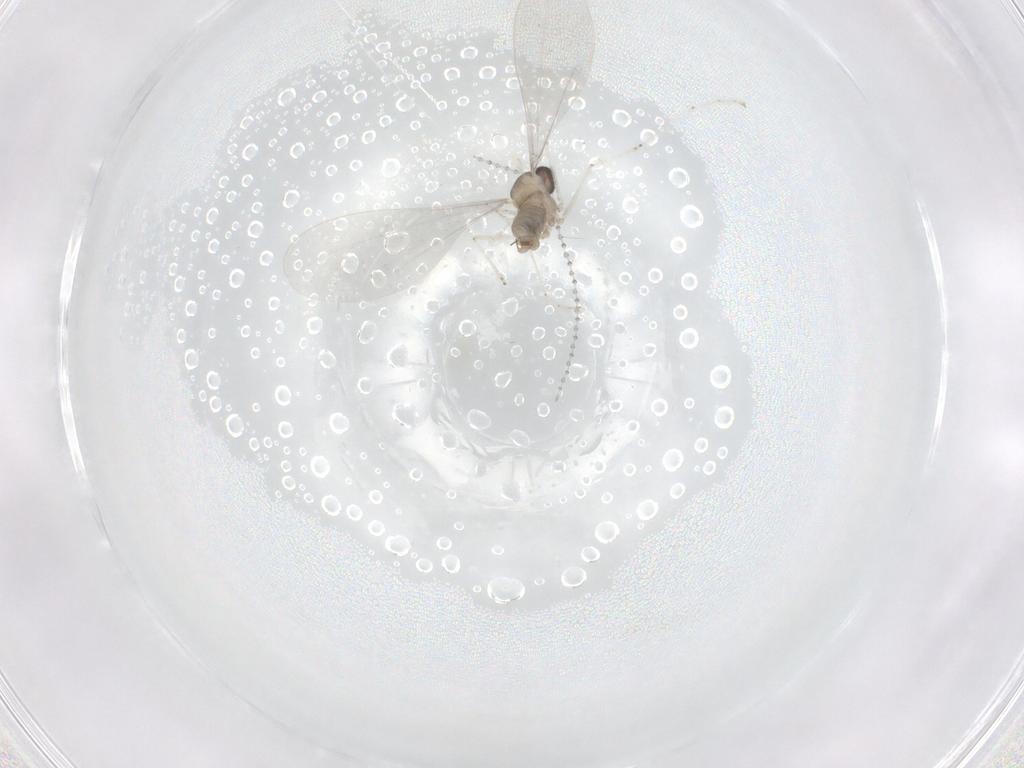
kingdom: Animalia
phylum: Arthropoda
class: Insecta
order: Diptera
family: Cecidomyiidae
